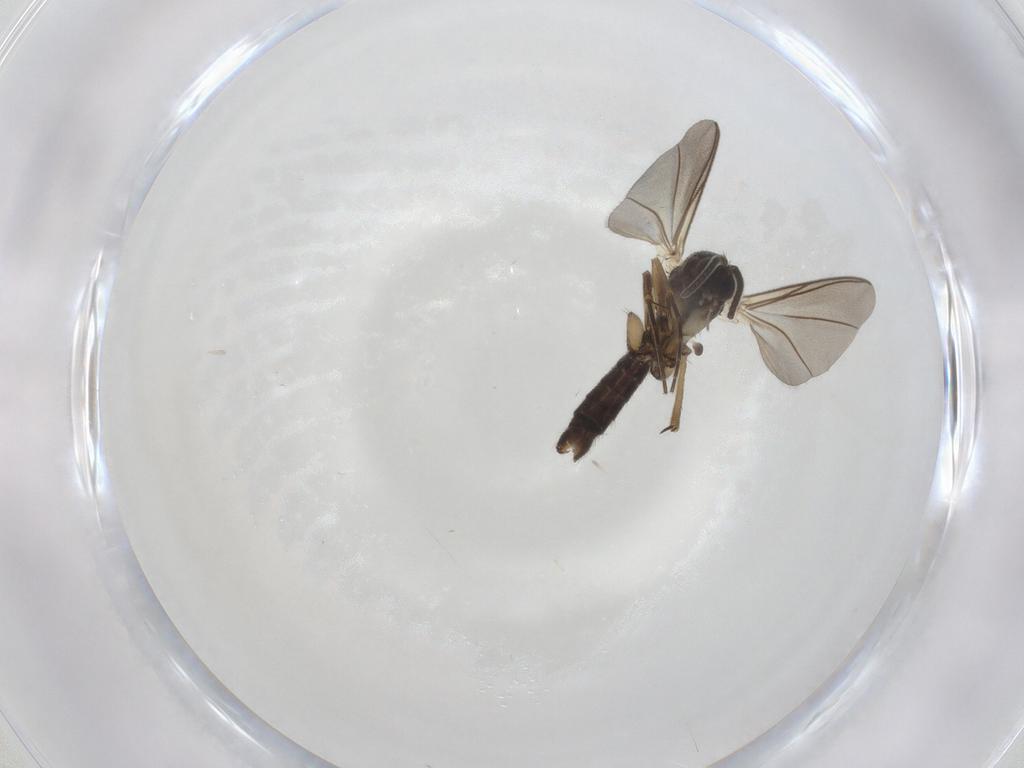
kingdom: Animalia
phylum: Arthropoda
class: Insecta
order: Diptera
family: Mycetophilidae
